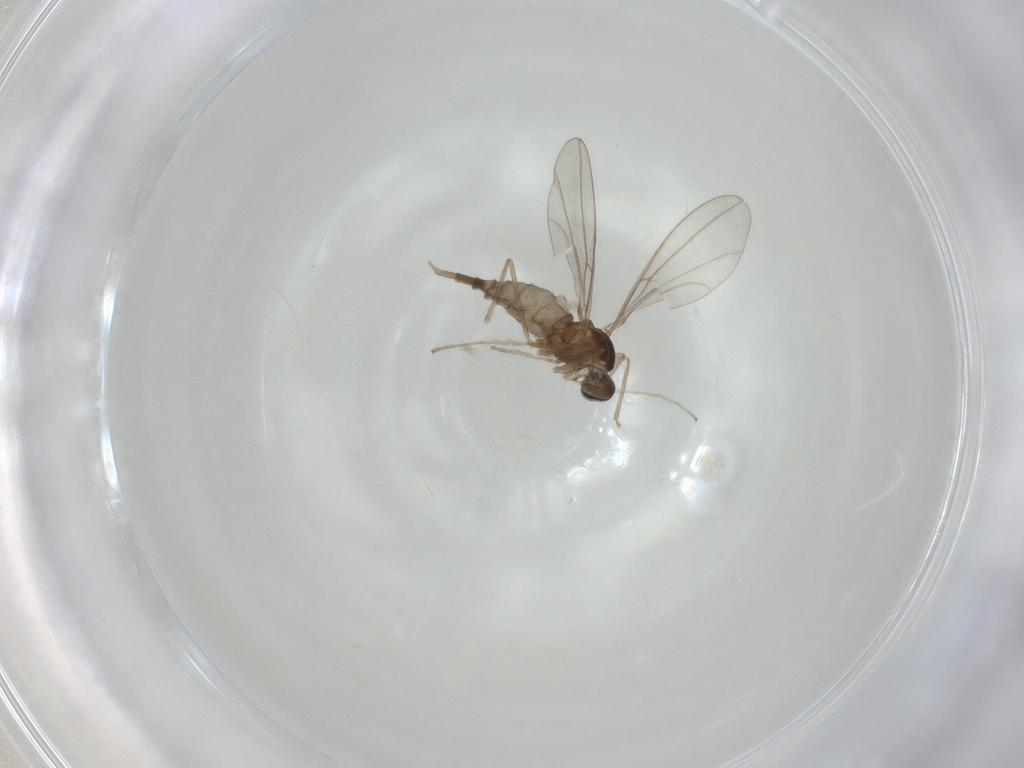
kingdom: Animalia
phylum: Arthropoda
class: Insecta
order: Diptera
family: Cecidomyiidae
